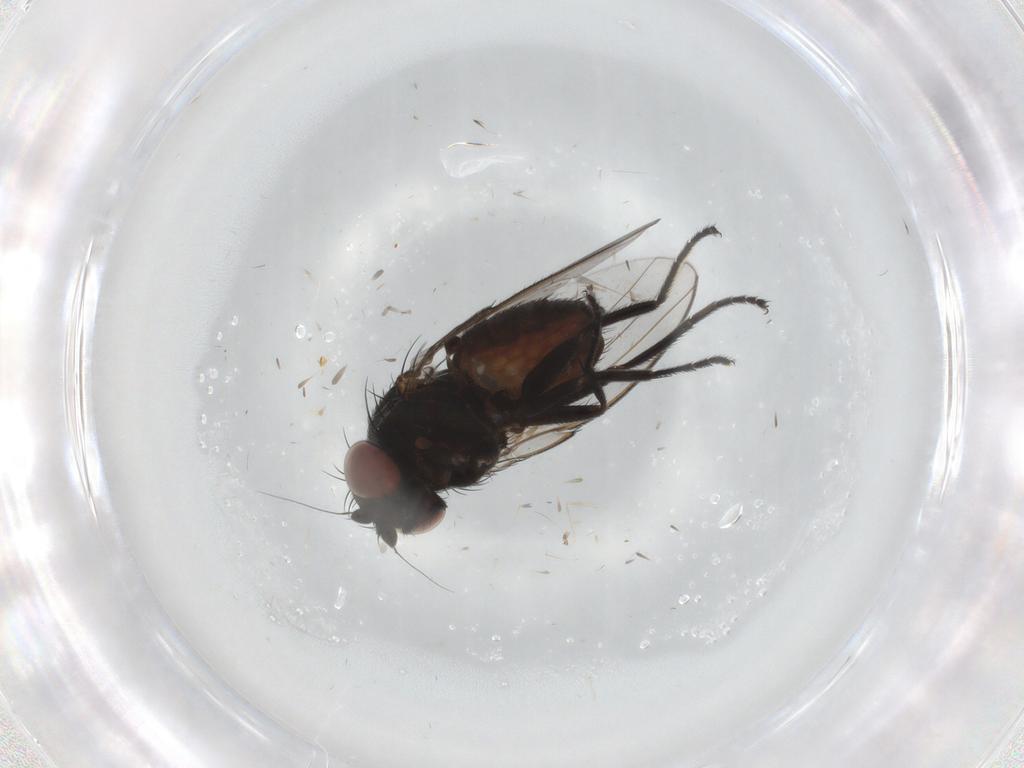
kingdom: Animalia
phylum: Arthropoda
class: Insecta
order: Diptera
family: Milichiidae
